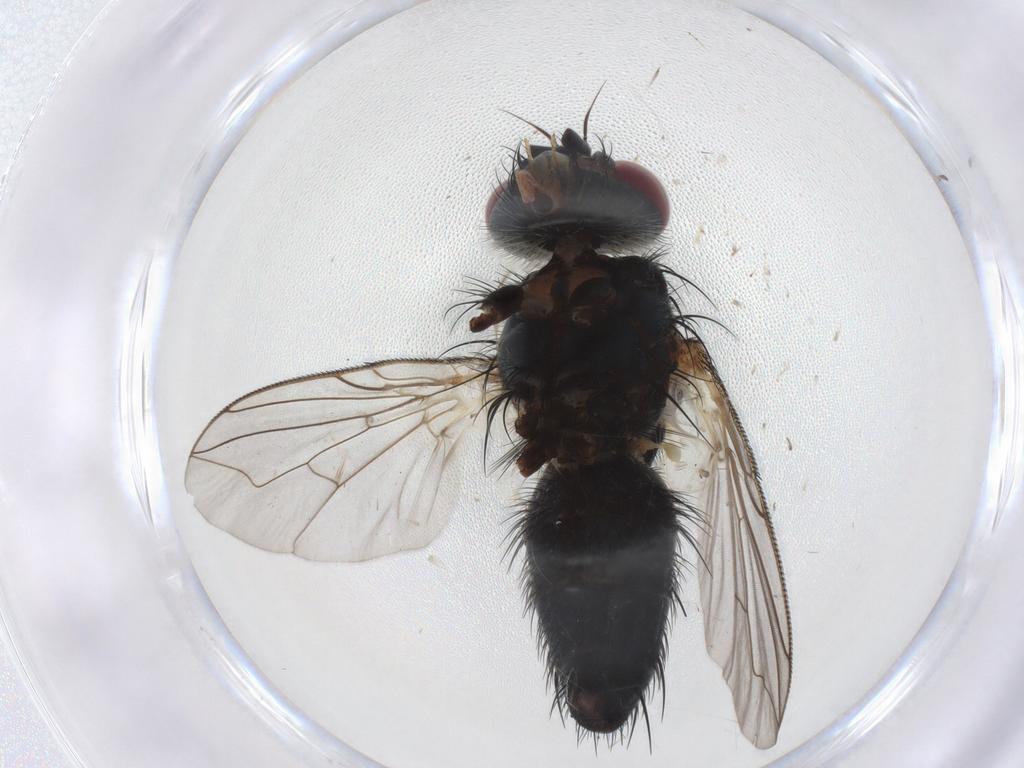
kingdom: Animalia
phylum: Arthropoda
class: Insecta
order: Diptera
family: Tachinidae
